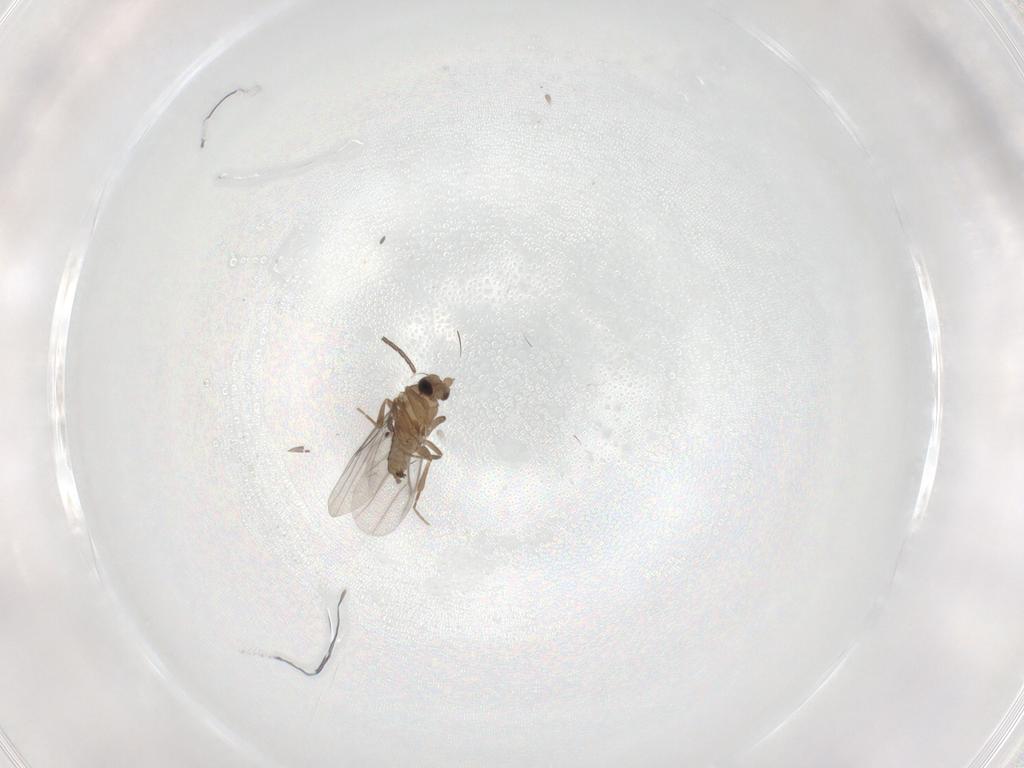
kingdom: Animalia
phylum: Arthropoda
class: Insecta
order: Diptera
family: Sciaridae
